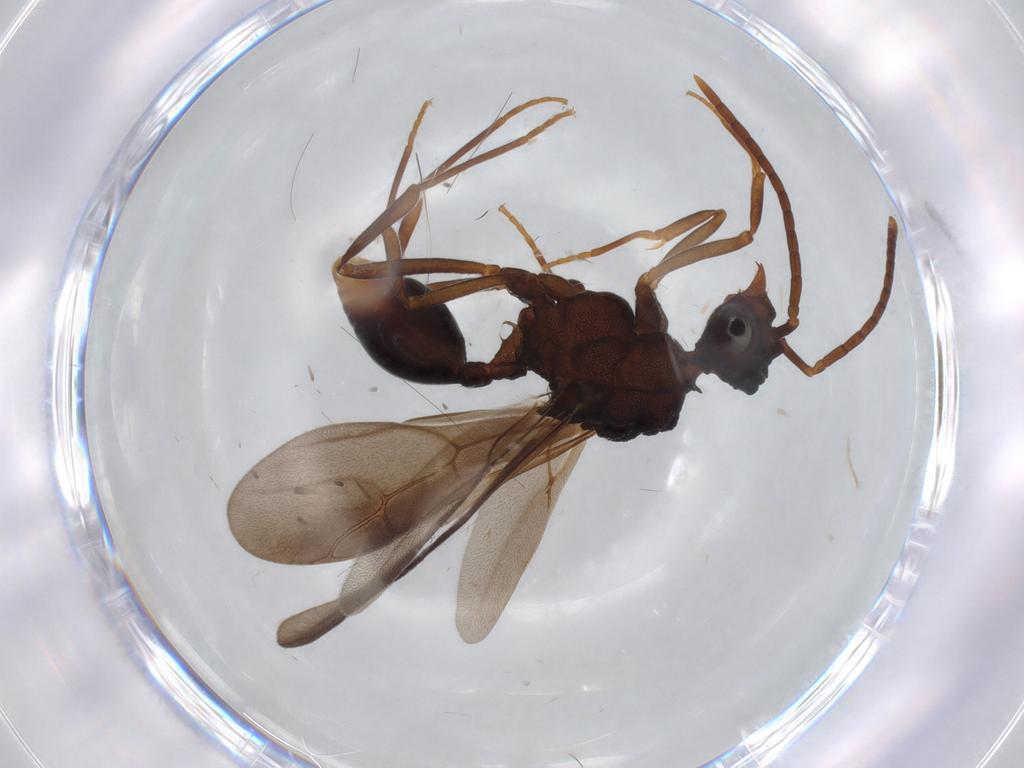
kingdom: Animalia
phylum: Arthropoda
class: Insecta
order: Hymenoptera
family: Formicidae
